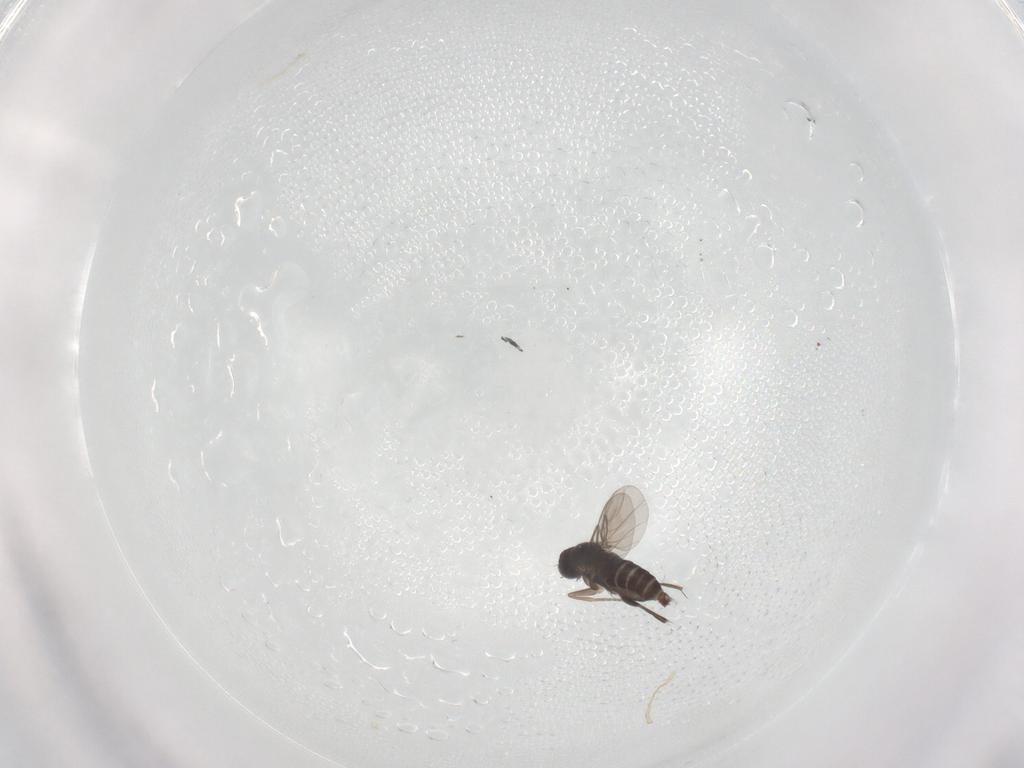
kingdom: Animalia
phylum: Arthropoda
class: Insecta
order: Diptera
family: Phoridae
